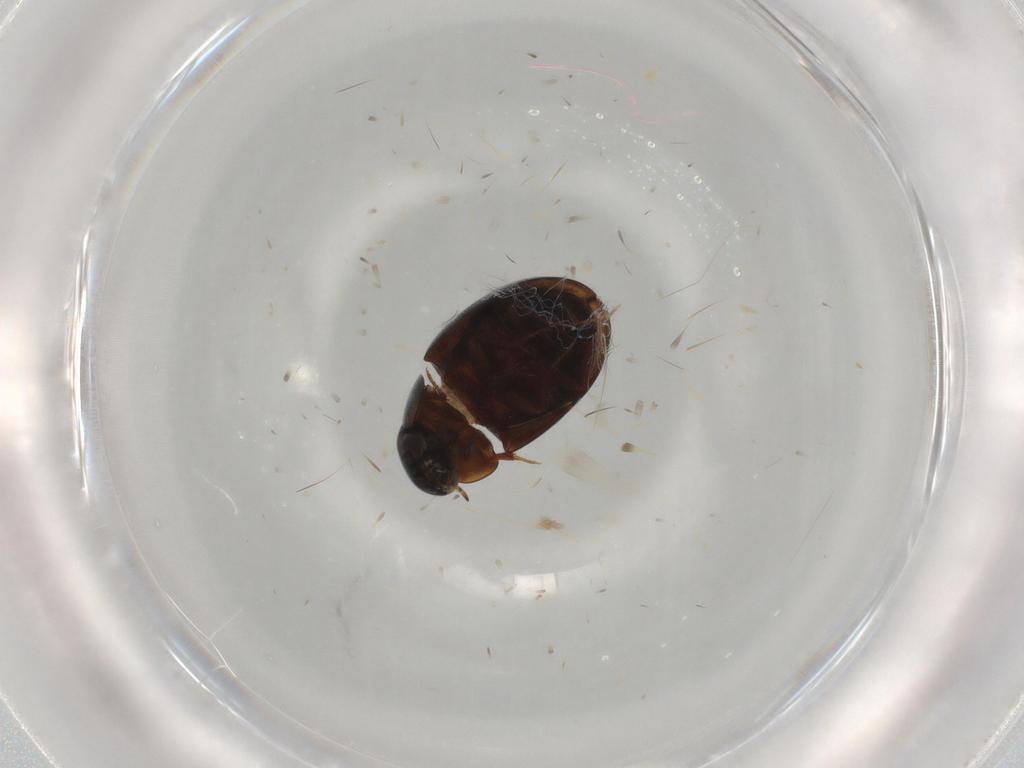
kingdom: Animalia
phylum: Arthropoda
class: Insecta
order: Coleoptera
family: Hydrophilidae
